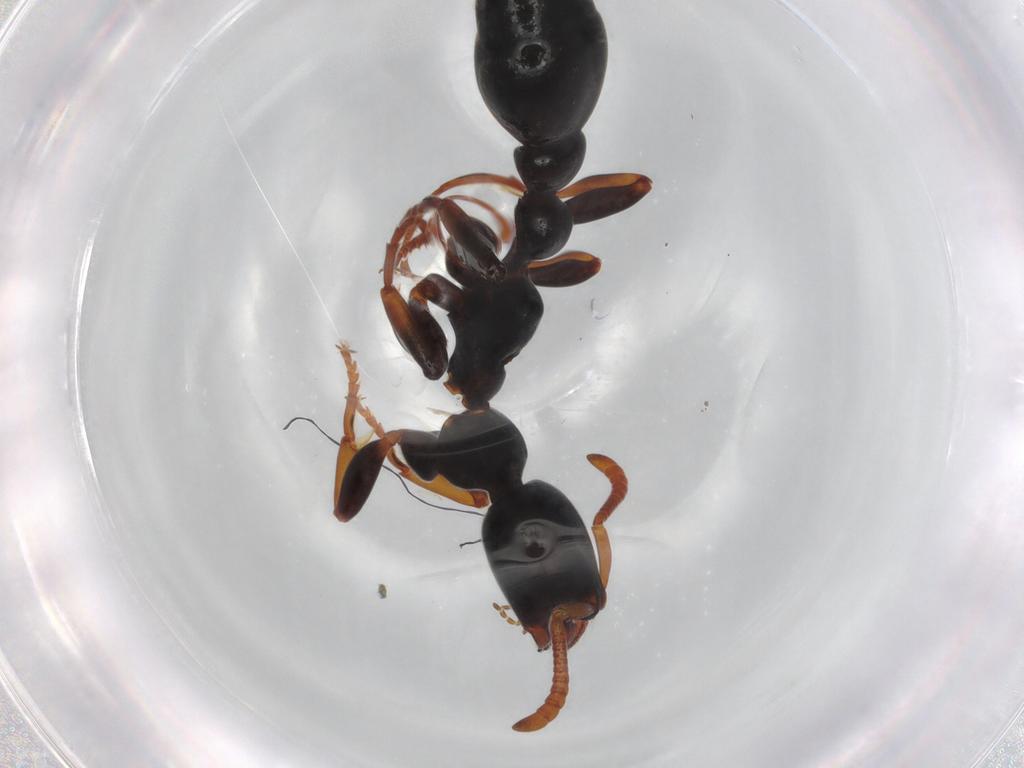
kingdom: Animalia
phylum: Arthropoda
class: Insecta
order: Hymenoptera
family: Formicidae
